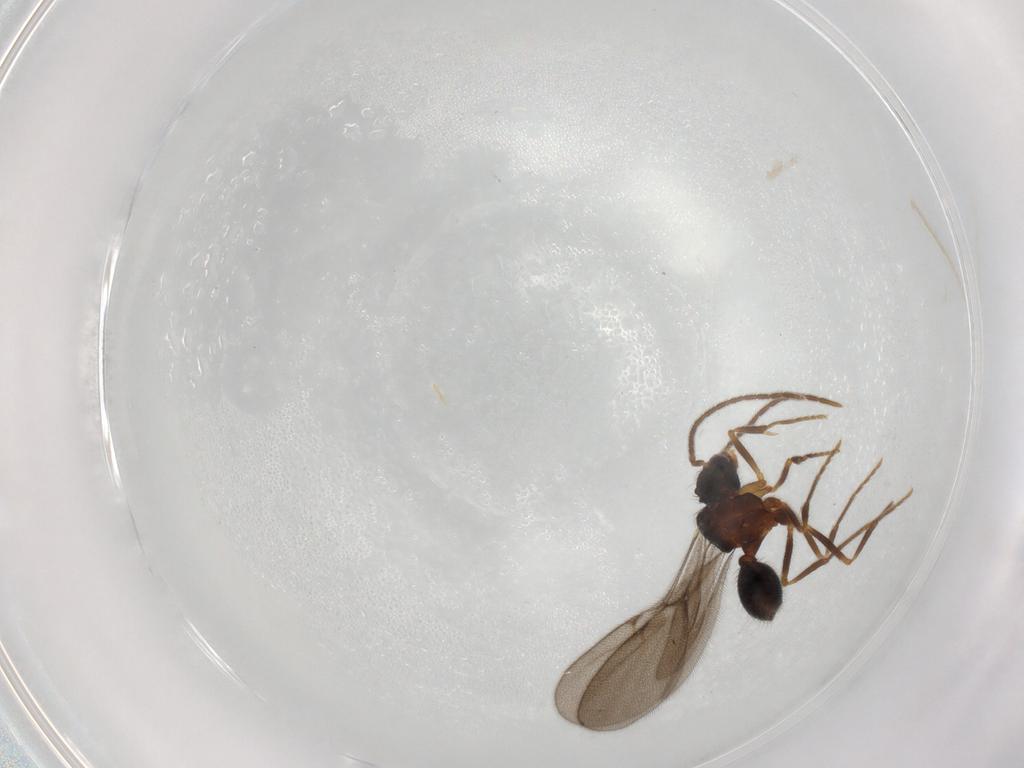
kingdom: Animalia
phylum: Arthropoda
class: Insecta
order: Hymenoptera
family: Formicidae
